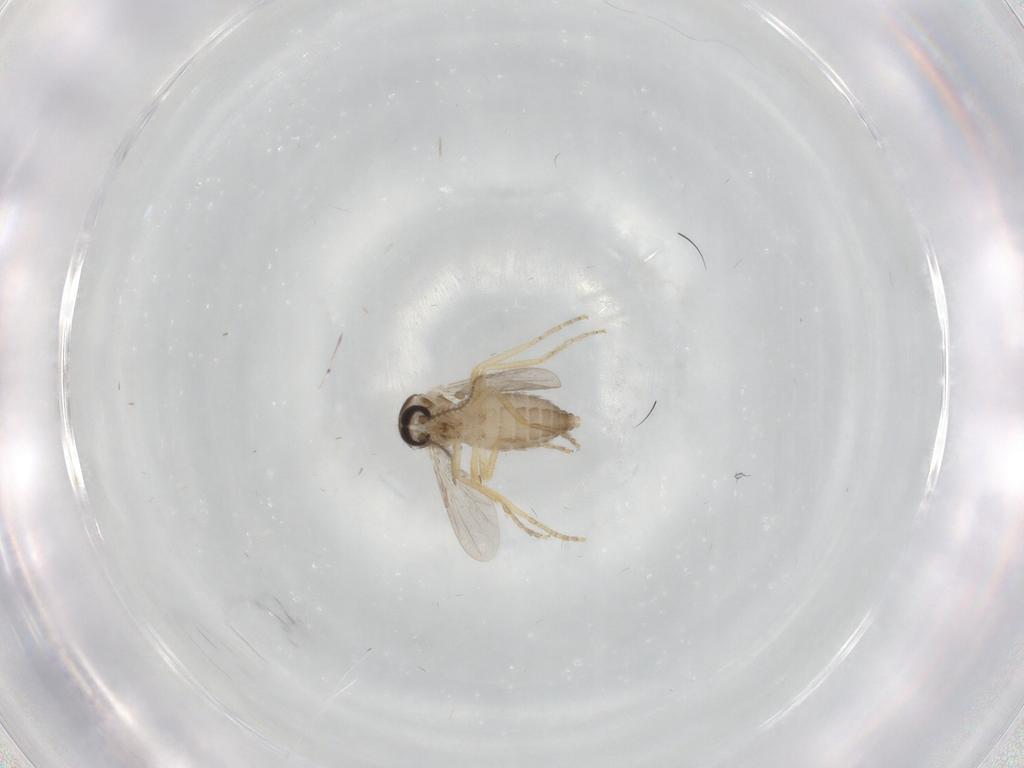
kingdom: Animalia
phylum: Arthropoda
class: Insecta
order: Diptera
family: Ceratopogonidae
